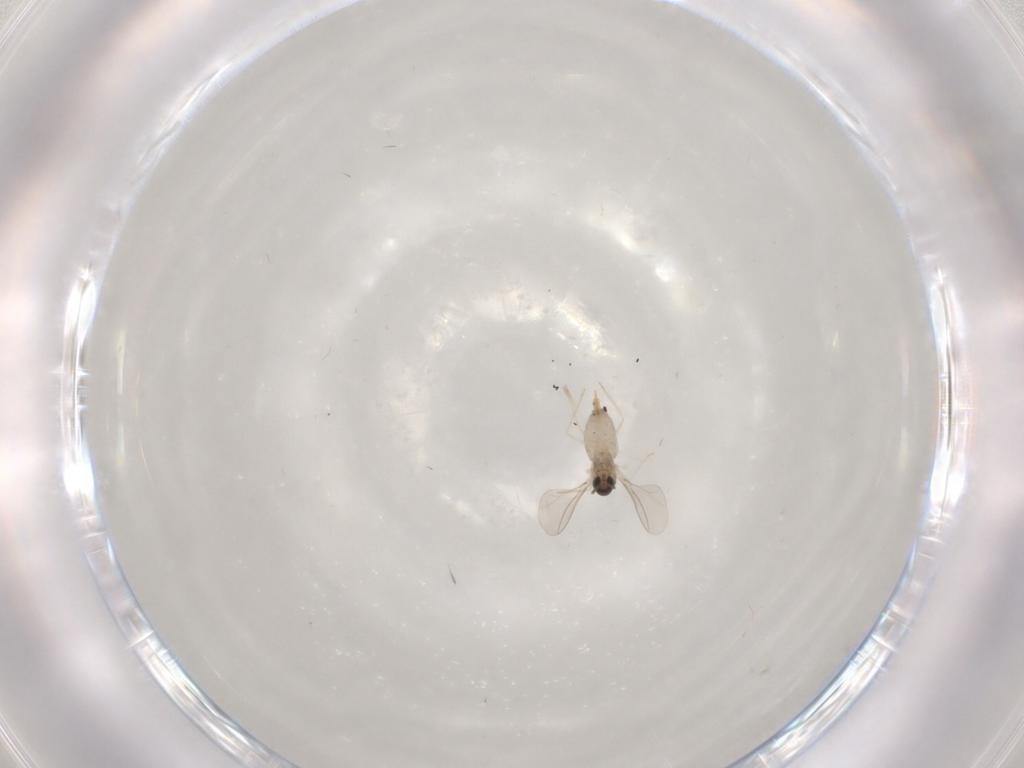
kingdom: Animalia
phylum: Arthropoda
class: Insecta
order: Diptera
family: Cecidomyiidae
